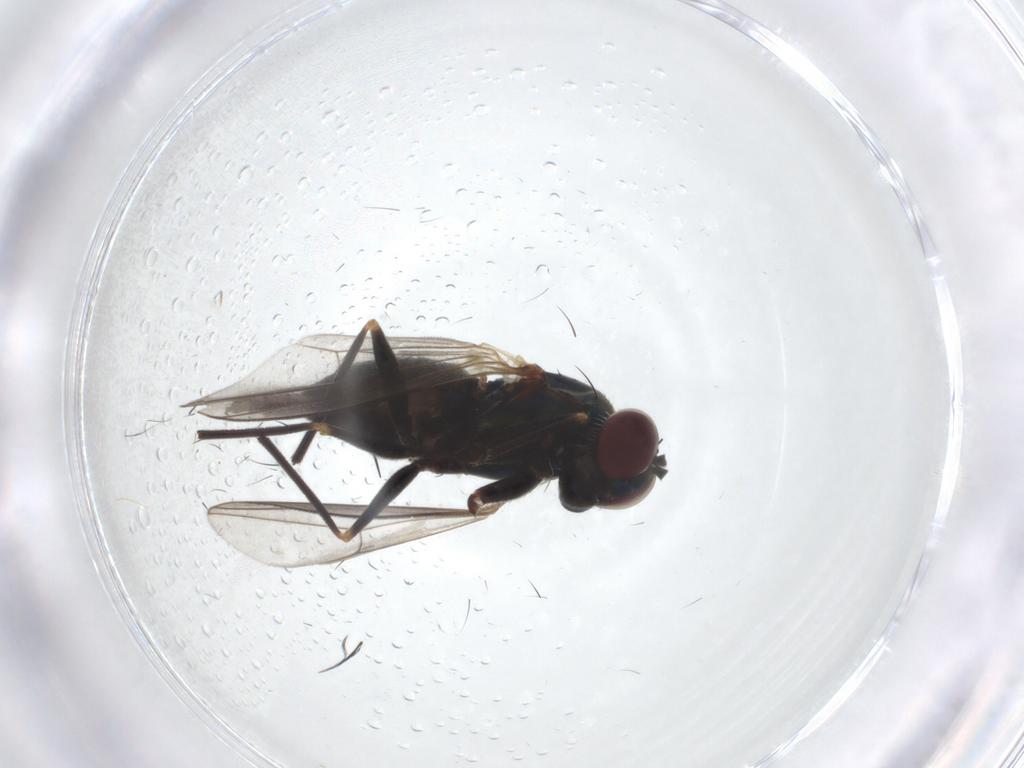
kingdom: Animalia
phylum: Arthropoda
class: Insecta
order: Diptera
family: Dolichopodidae
